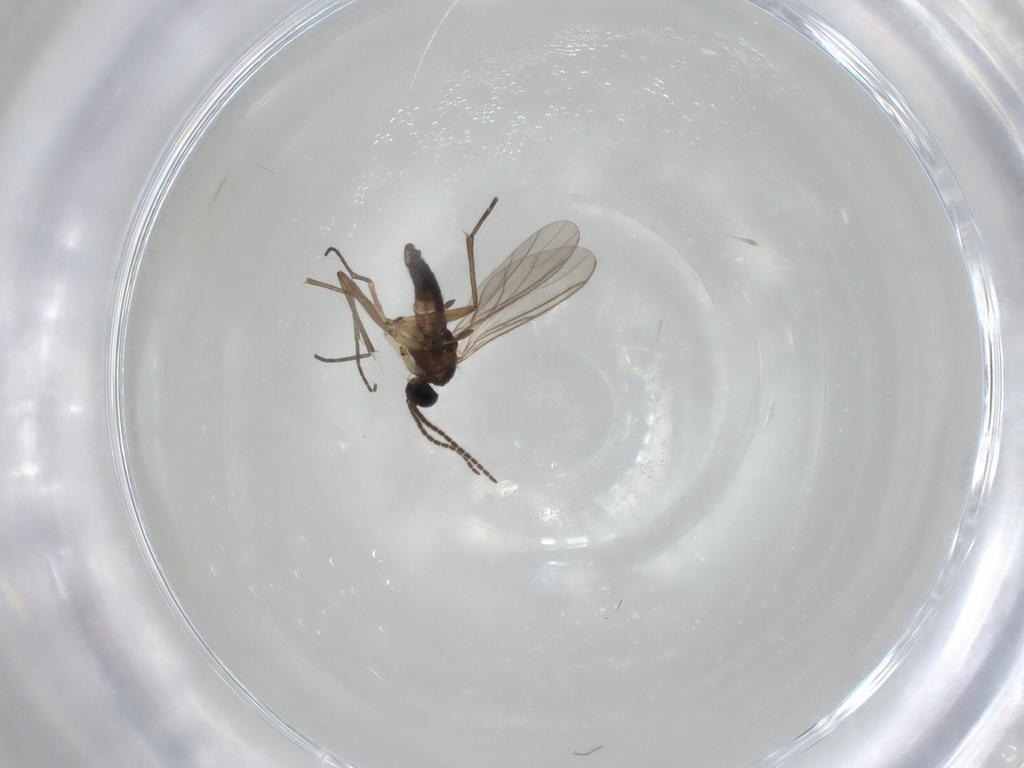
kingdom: Animalia
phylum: Arthropoda
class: Insecta
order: Diptera
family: Sciaridae
